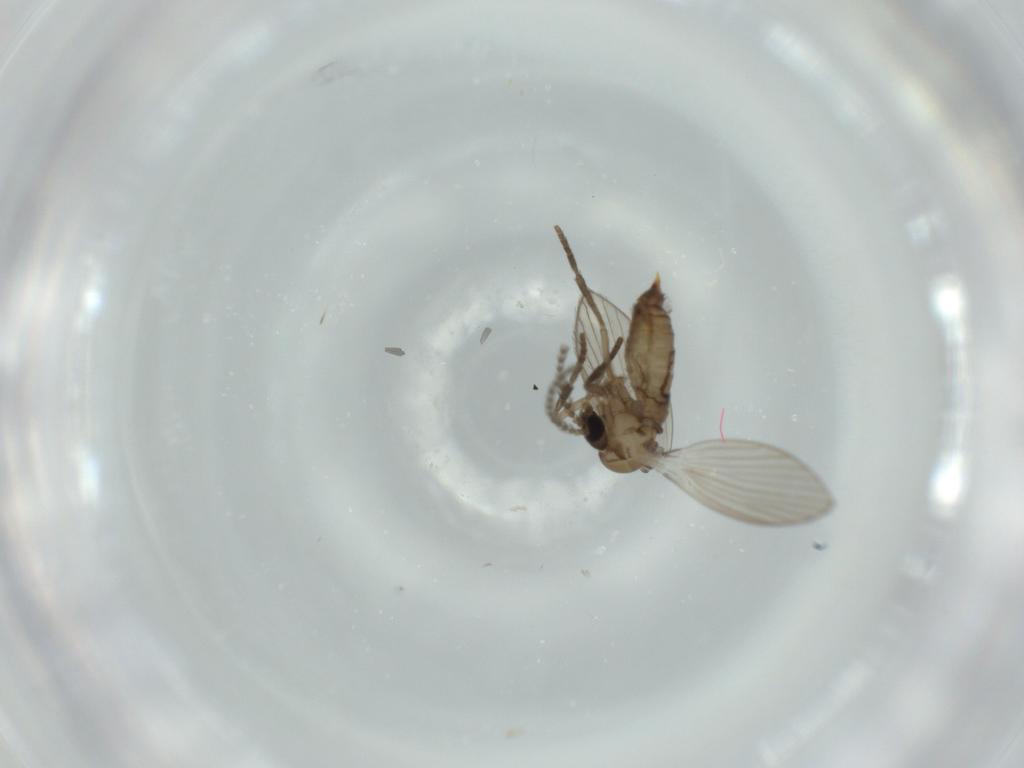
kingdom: Animalia
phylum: Arthropoda
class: Insecta
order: Diptera
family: Psychodidae
